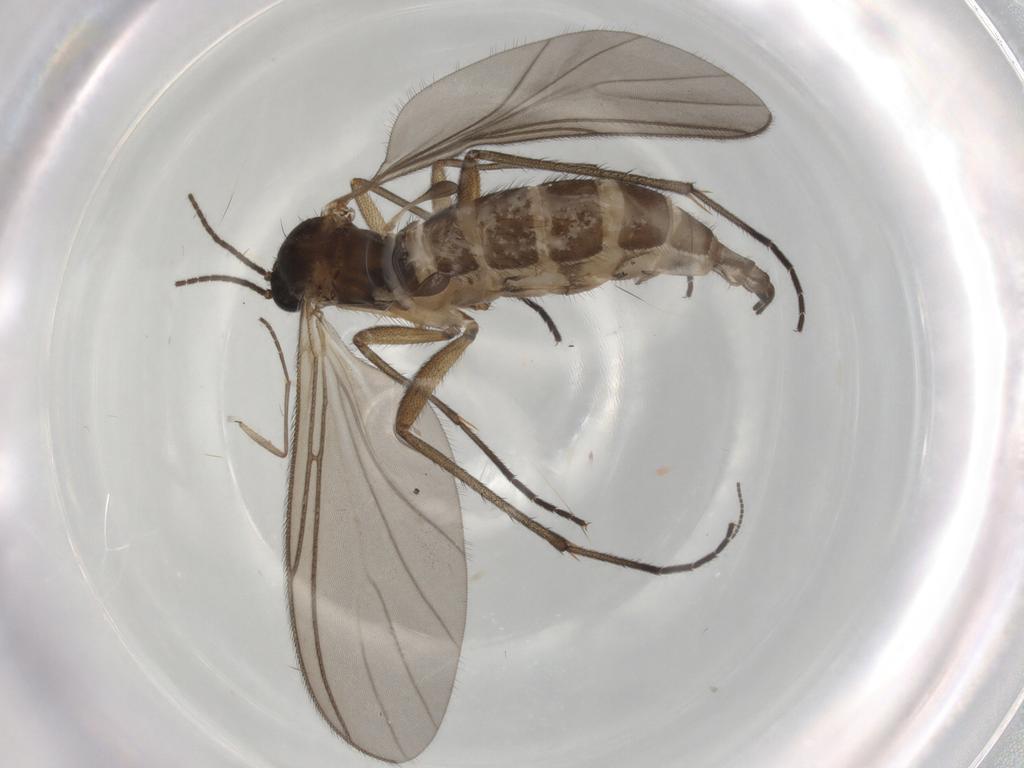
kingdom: Animalia
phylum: Arthropoda
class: Insecta
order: Diptera
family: Sciaridae
